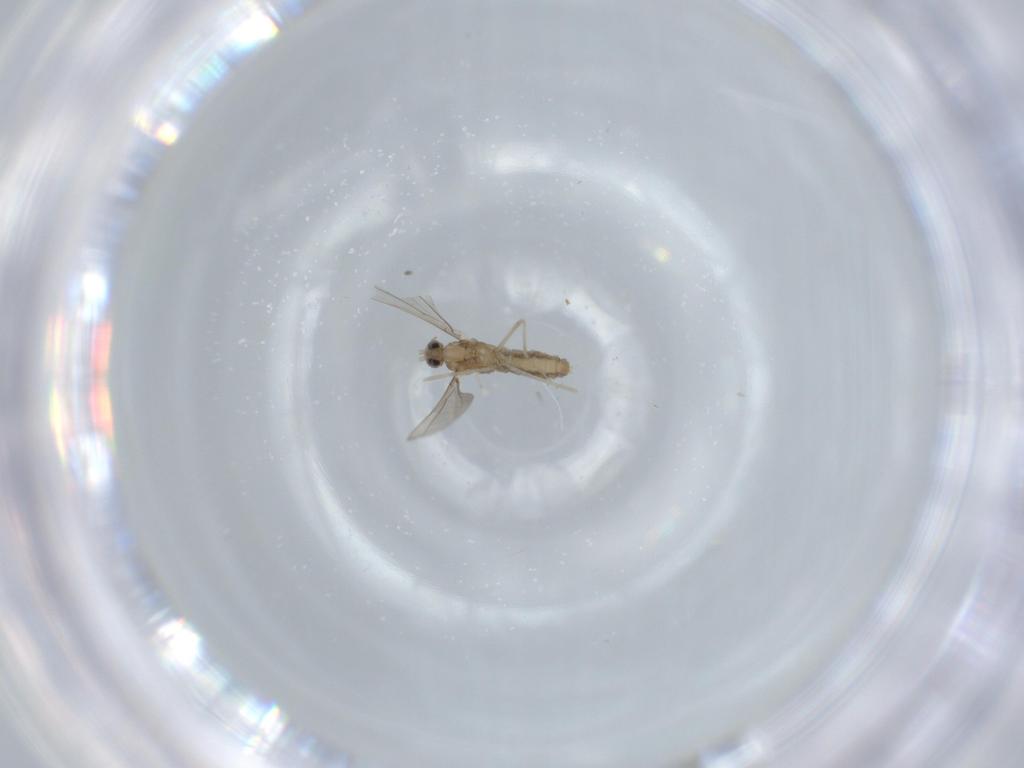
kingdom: Animalia
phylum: Arthropoda
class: Insecta
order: Diptera
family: Cecidomyiidae
